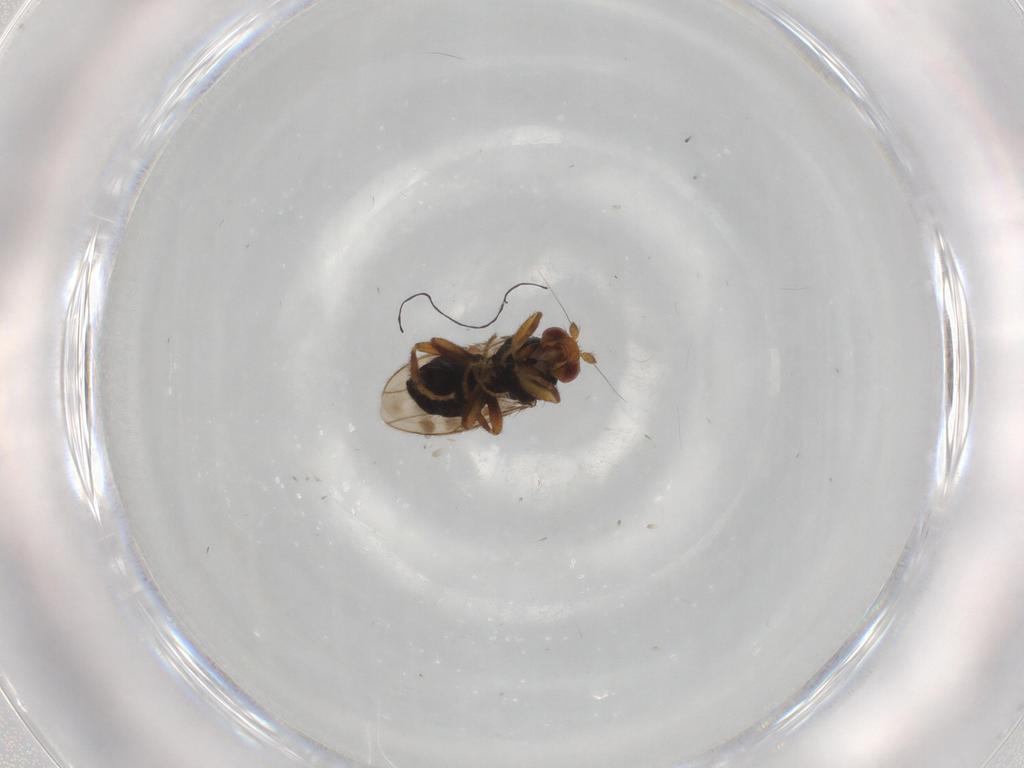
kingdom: Animalia
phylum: Arthropoda
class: Insecta
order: Diptera
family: Sphaeroceridae
